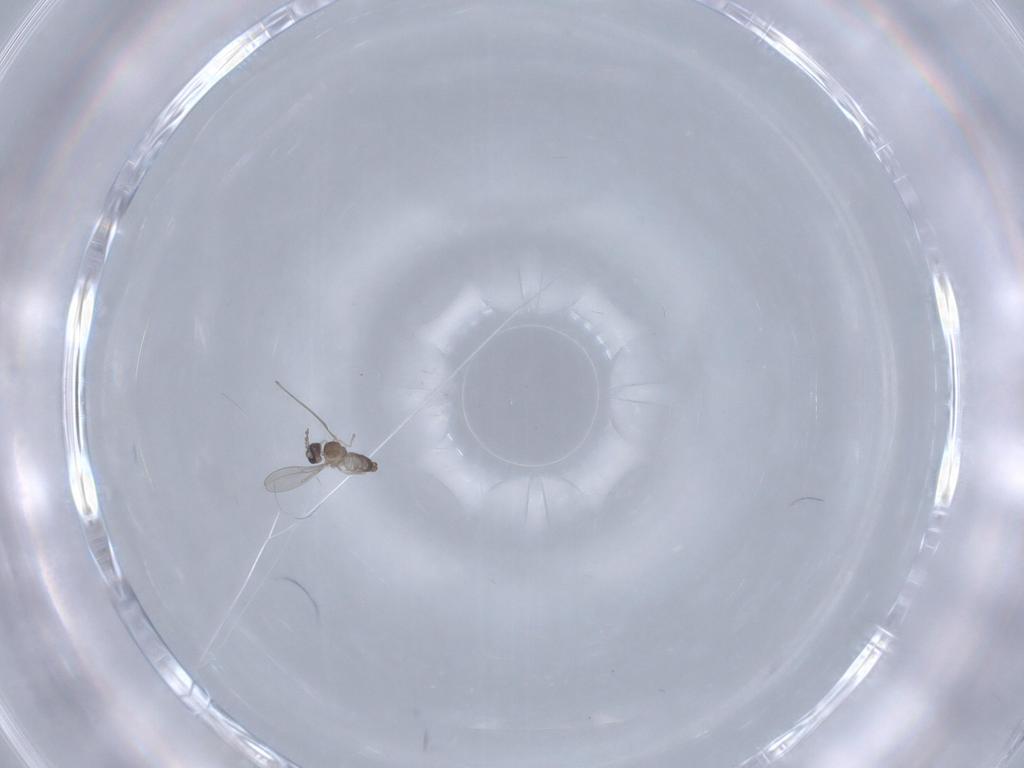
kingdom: Animalia
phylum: Arthropoda
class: Insecta
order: Diptera
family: Cecidomyiidae
